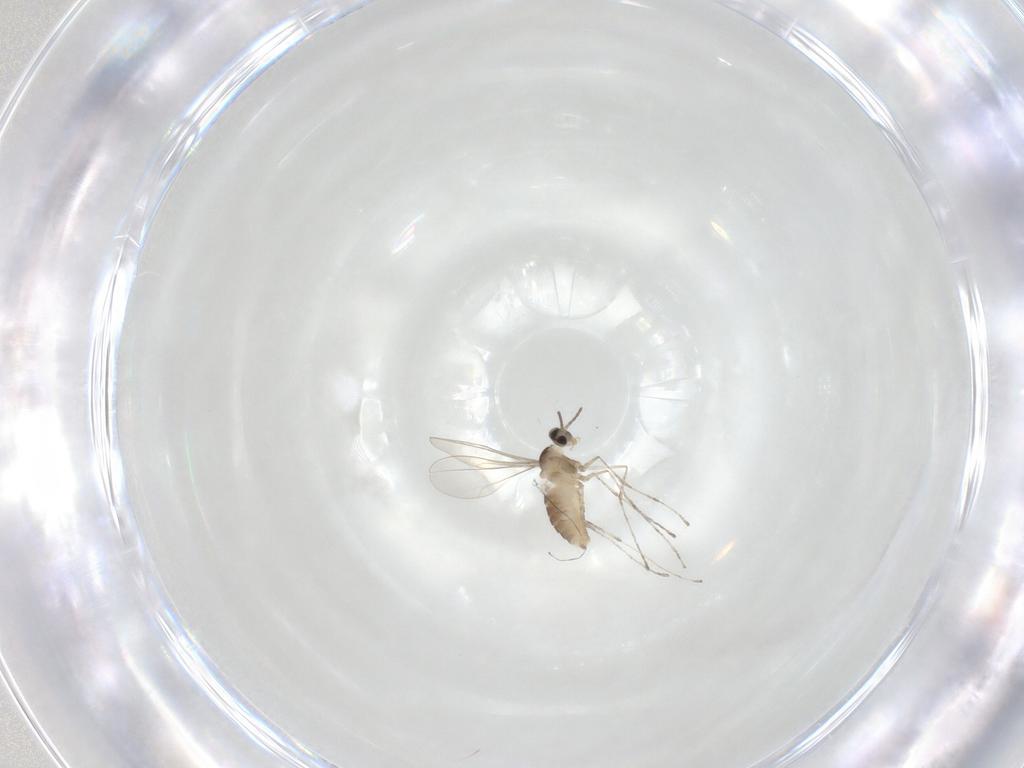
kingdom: Animalia
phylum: Arthropoda
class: Insecta
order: Diptera
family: Cecidomyiidae
